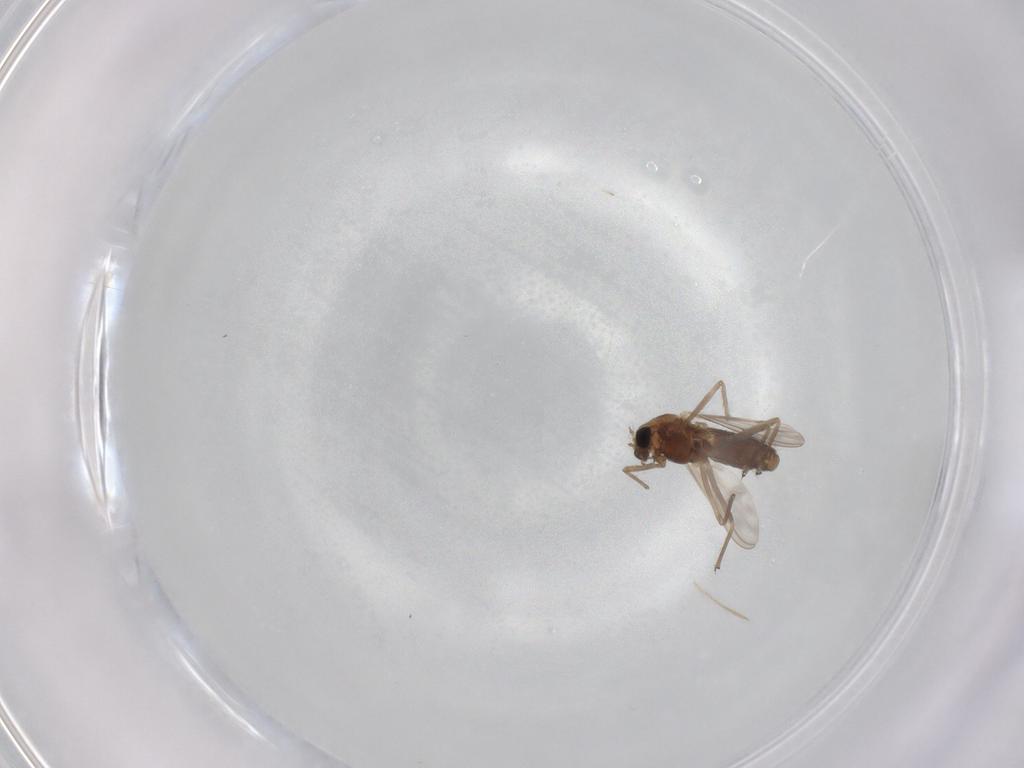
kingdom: Animalia
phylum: Arthropoda
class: Insecta
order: Diptera
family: Chironomidae
